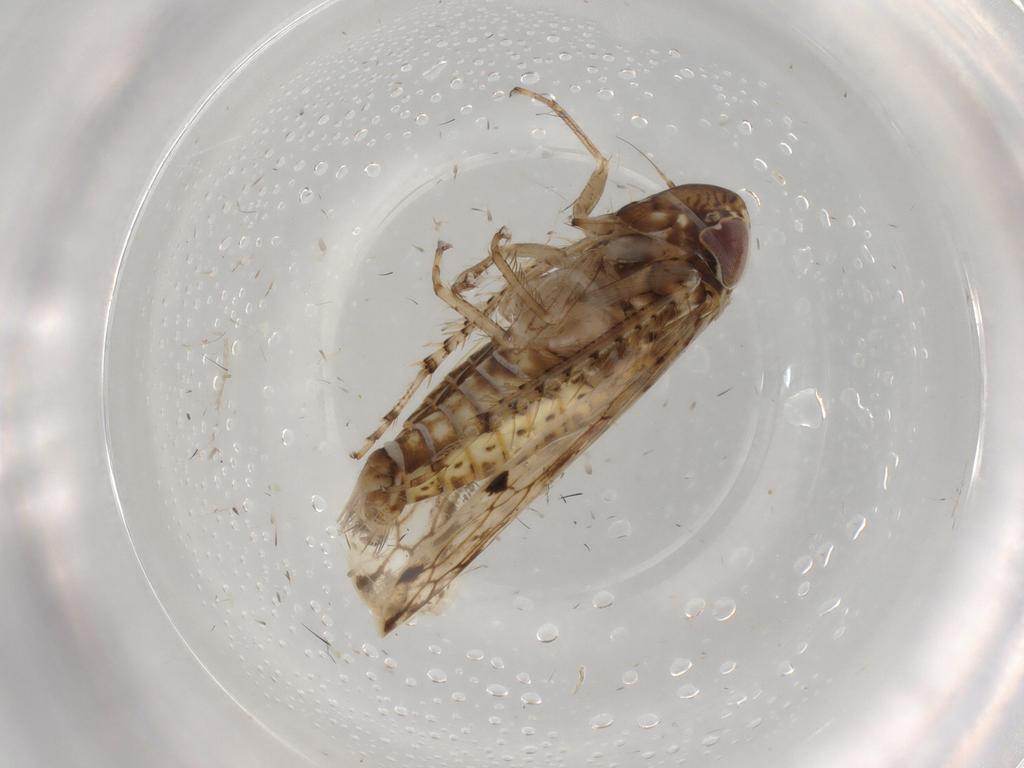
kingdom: Animalia
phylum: Arthropoda
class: Insecta
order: Hemiptera
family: Cicadellidae
